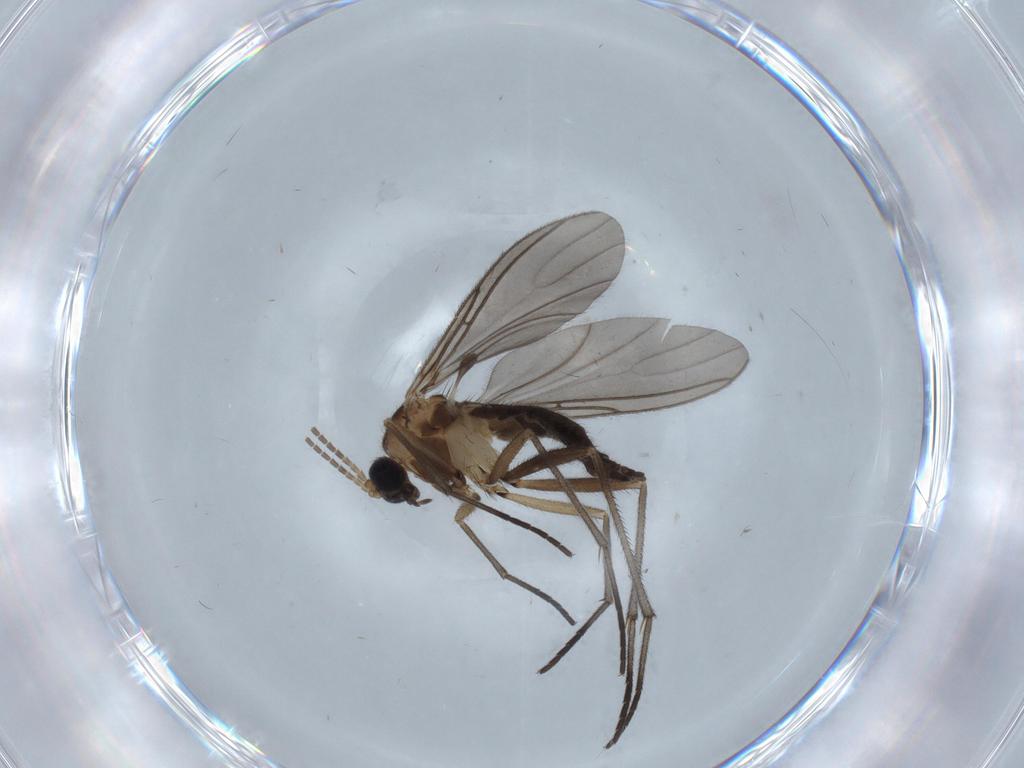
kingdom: Animalia
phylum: Arthropoda
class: Insecta
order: Diptera
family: Sciaridae
